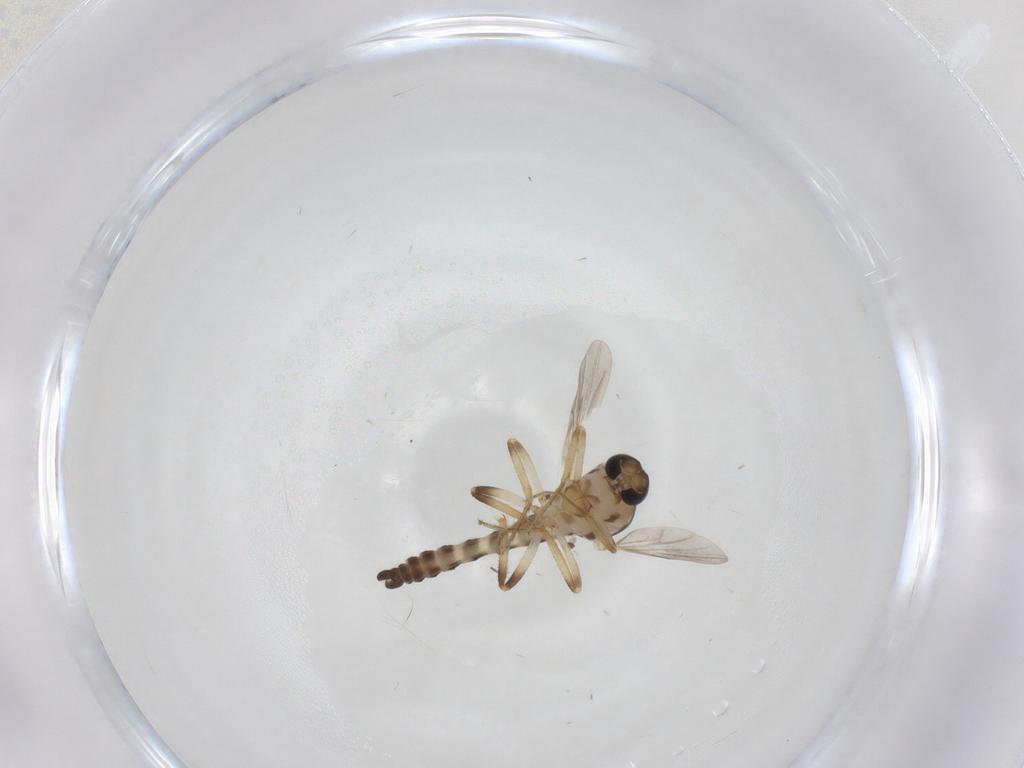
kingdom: Animalia
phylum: Arthropoda
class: Insecta
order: Diptera
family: Ceratopogonidae
